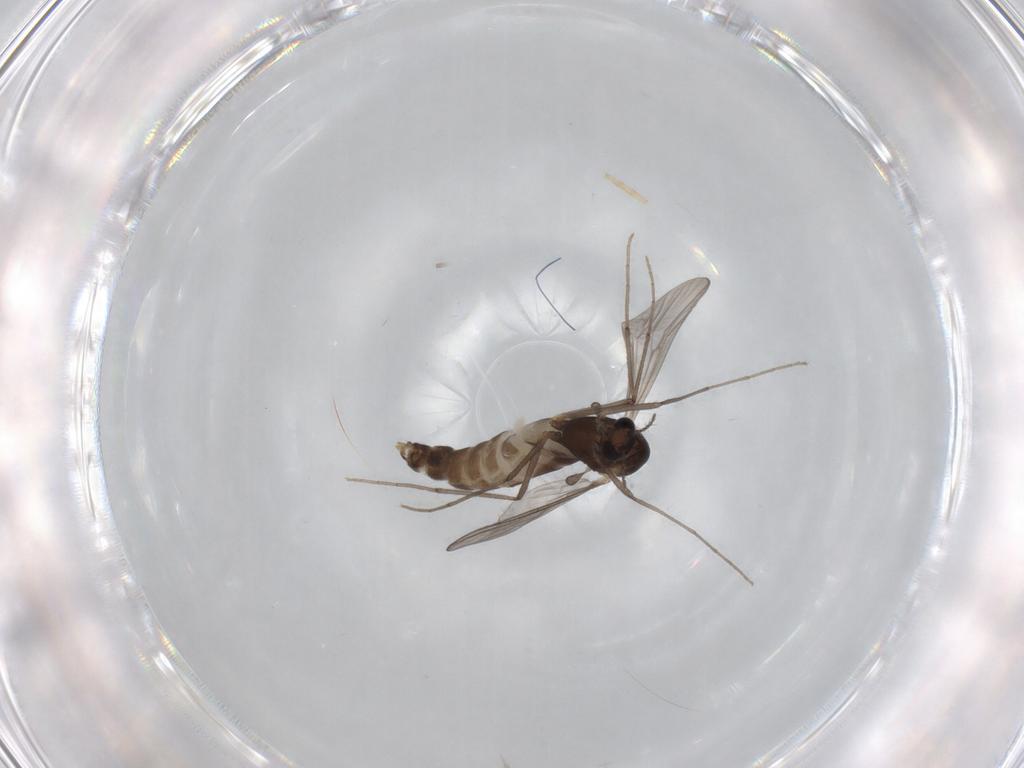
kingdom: Animalia
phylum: Arthropoda
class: Insecta
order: Diptera
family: Chironomidae
